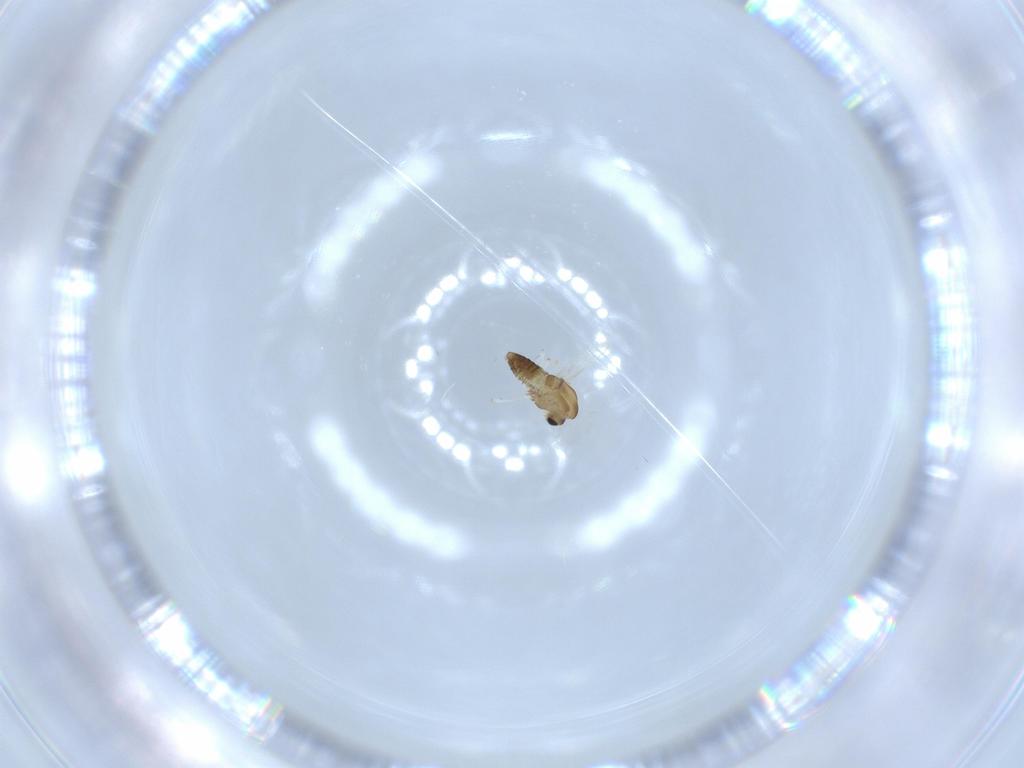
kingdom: Animalia
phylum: Arthropoda
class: Insecta
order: Diptera
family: Chironomidae
